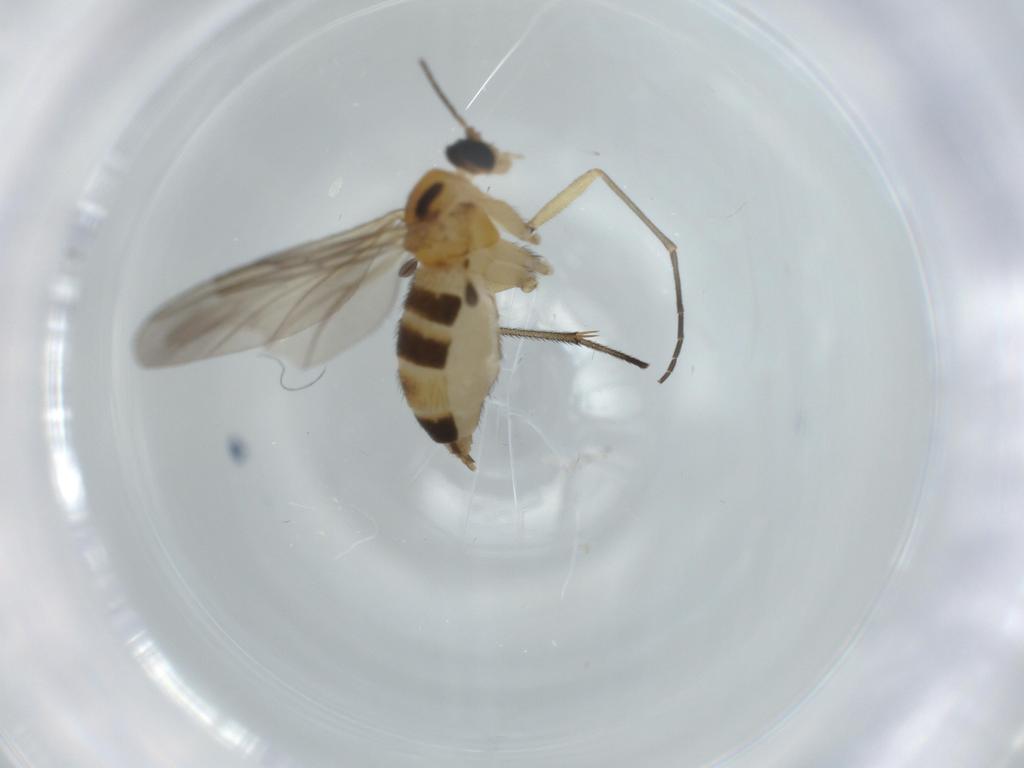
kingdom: Animalia
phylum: Arthropoda
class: Insecta
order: Diptera
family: Sciaridae
